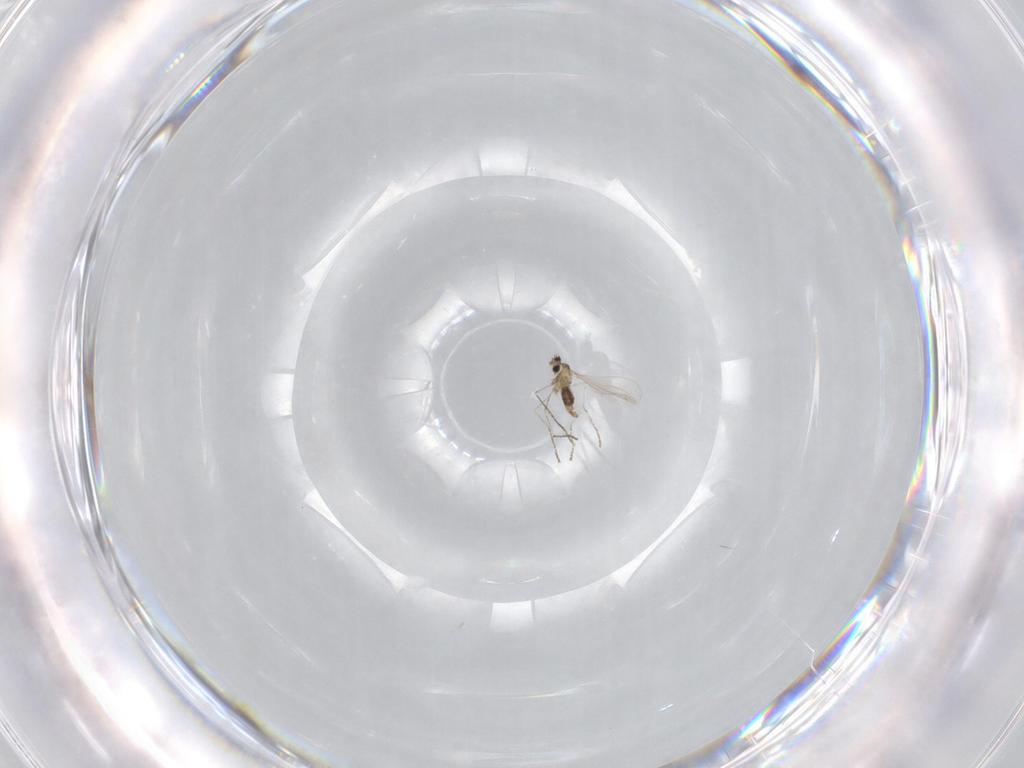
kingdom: Animalia
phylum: Arthropoda
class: Insecta
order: Diptera
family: Cecidomyiidae
